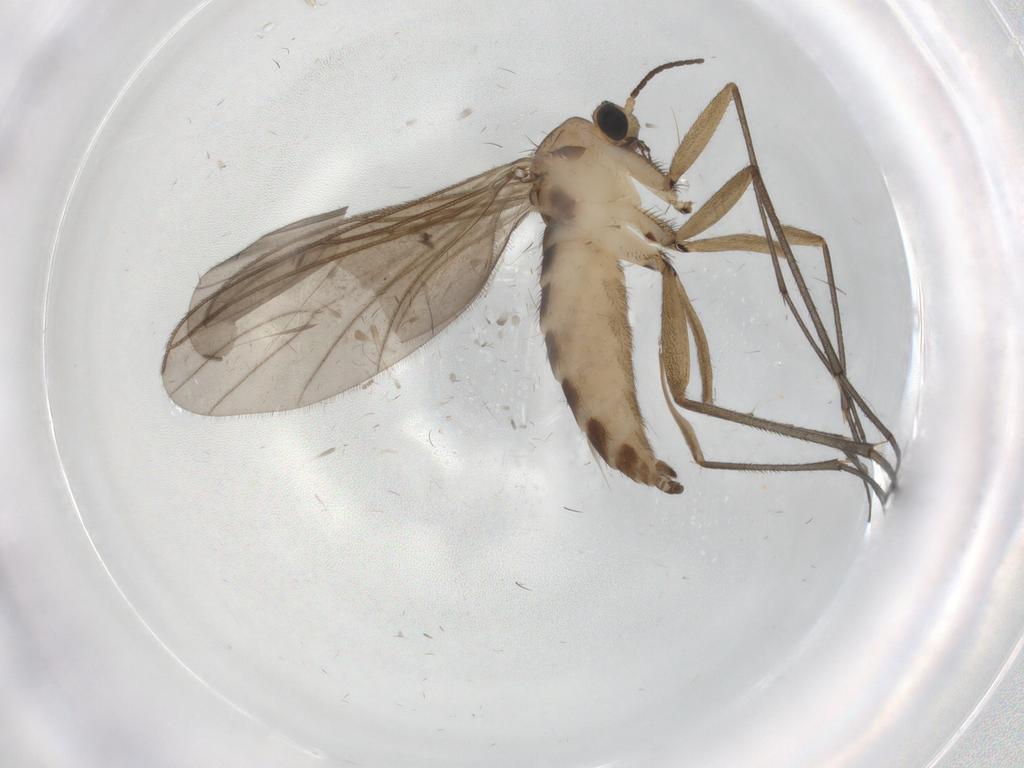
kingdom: Animalia
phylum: Arthropoda
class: Insecta
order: Diptera
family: Sciaridae
